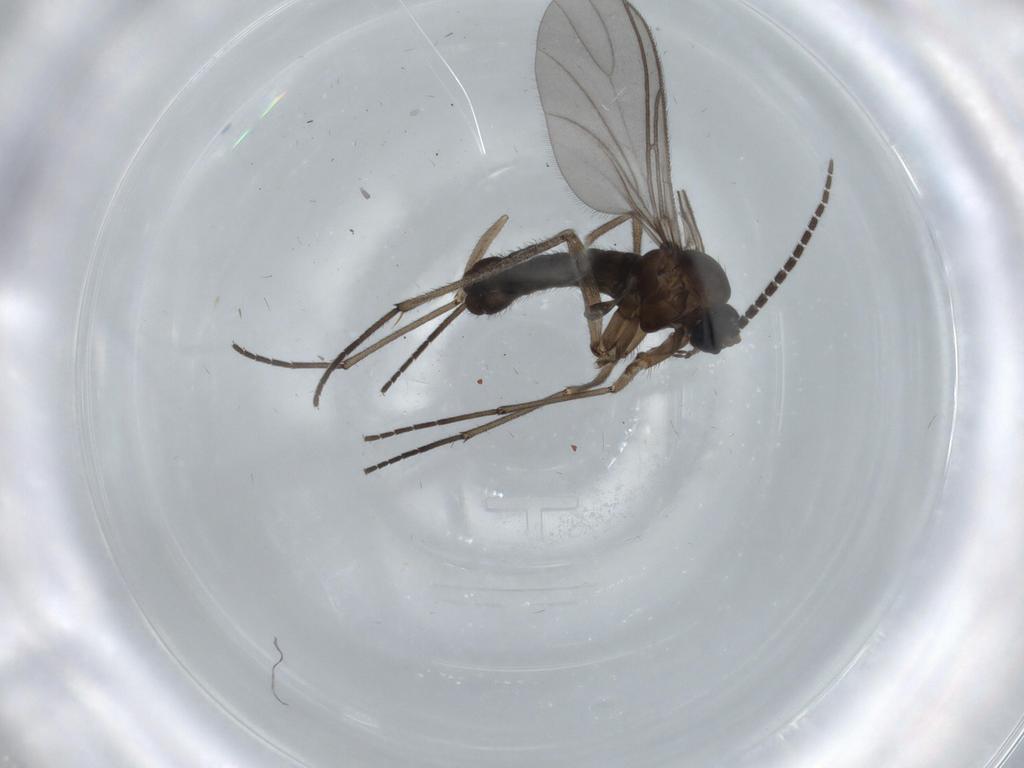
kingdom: Animalia
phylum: Arthropoda
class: Insecta
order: Diptera
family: Sciaridae
